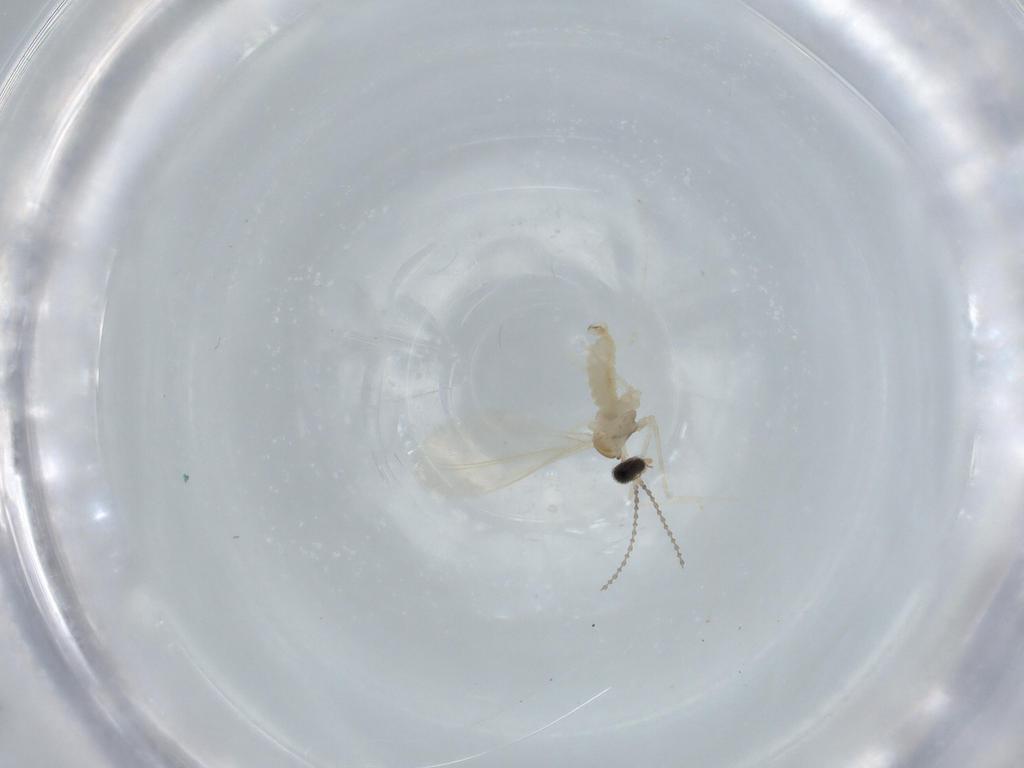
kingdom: Animalia
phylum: Arthropoda
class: Insecta
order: Diptera
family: Cecidomyiidae
